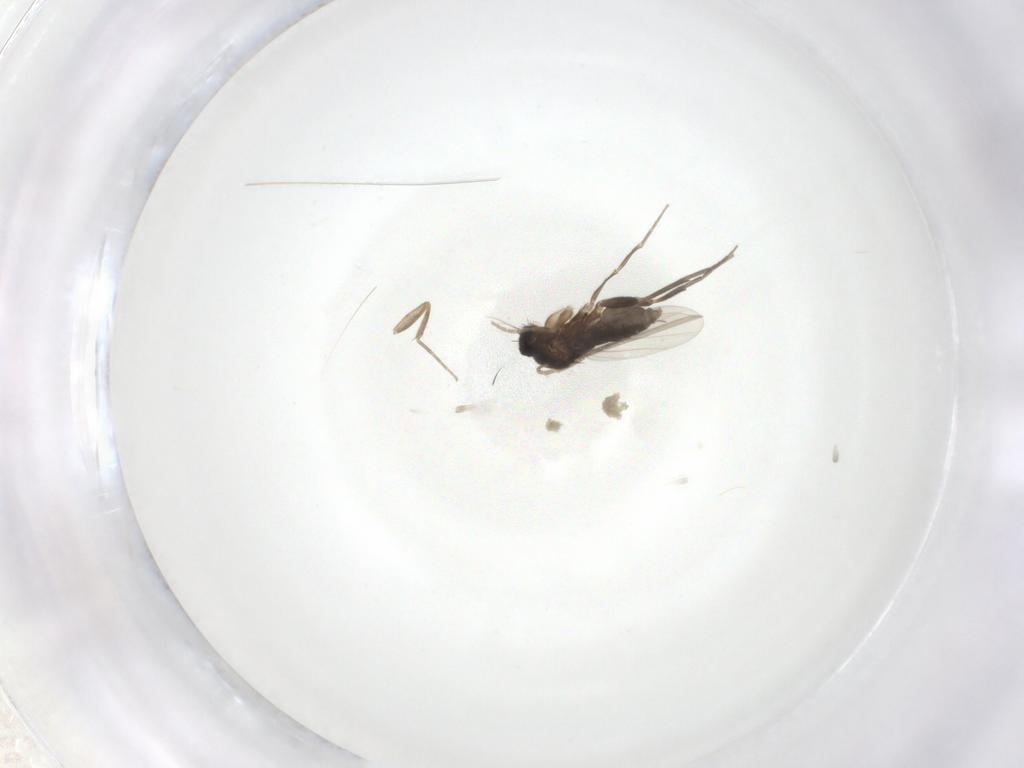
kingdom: Animalia
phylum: Arthropoda
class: Insecta
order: Diptera
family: Phoridae
